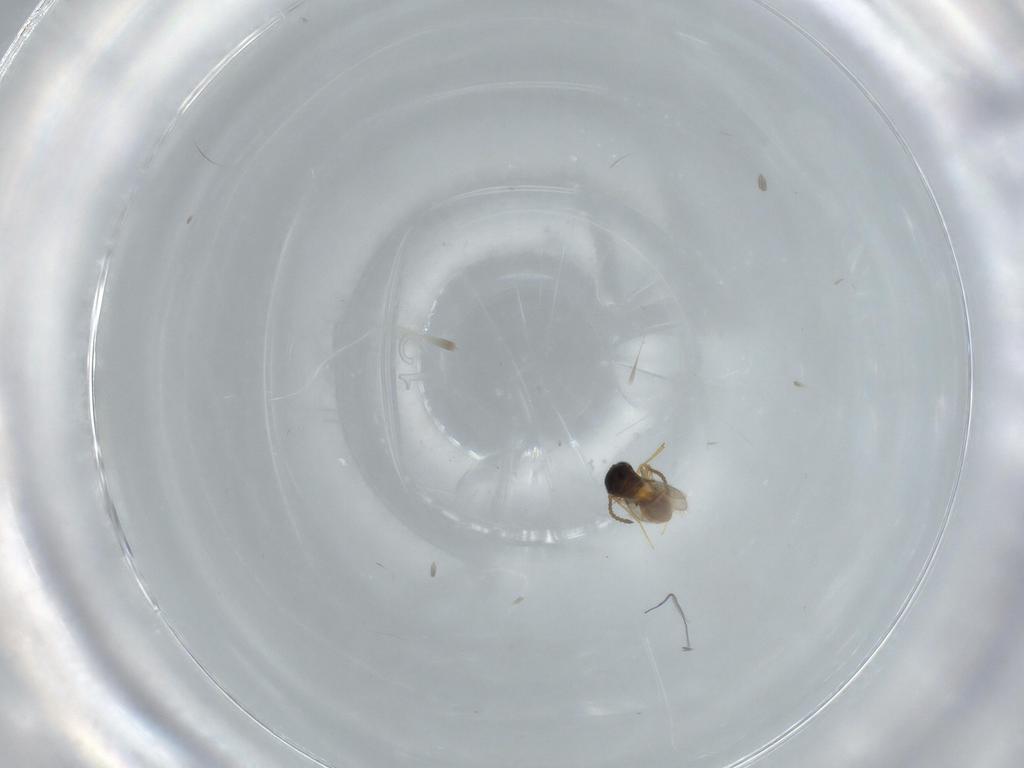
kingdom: Animalia
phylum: Arthropoda
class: Insecta
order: Hymenoptera
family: Scelionidae
